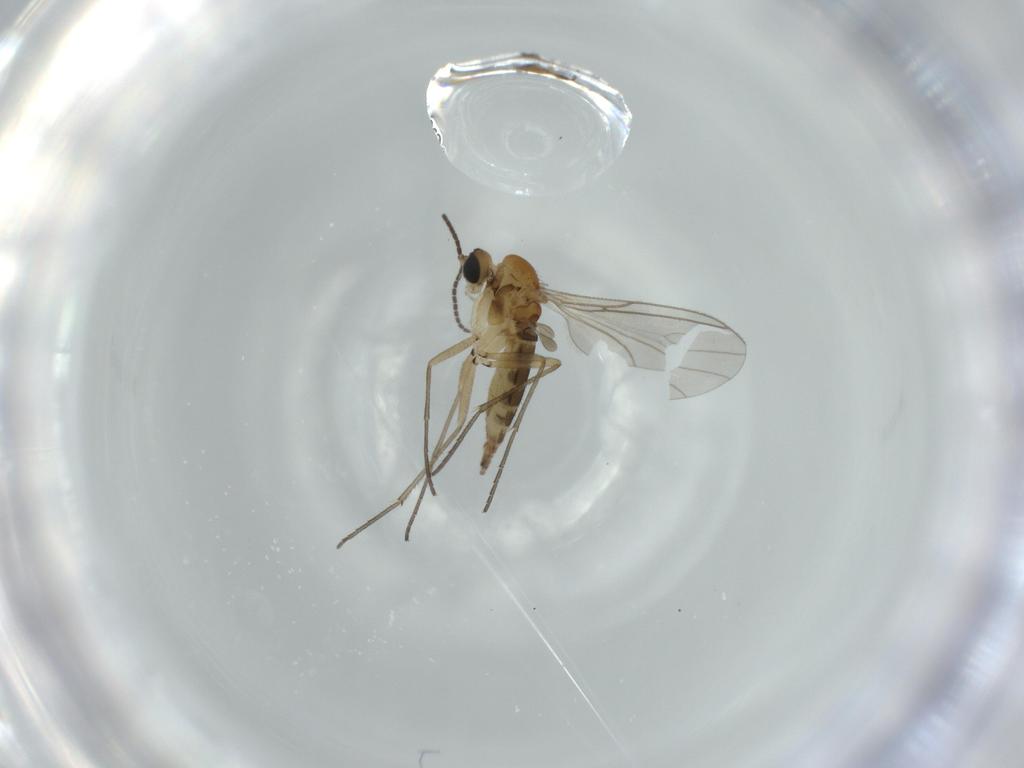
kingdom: Animalia
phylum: Arthropoda
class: Insecta
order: Diptera
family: Sciaridae
